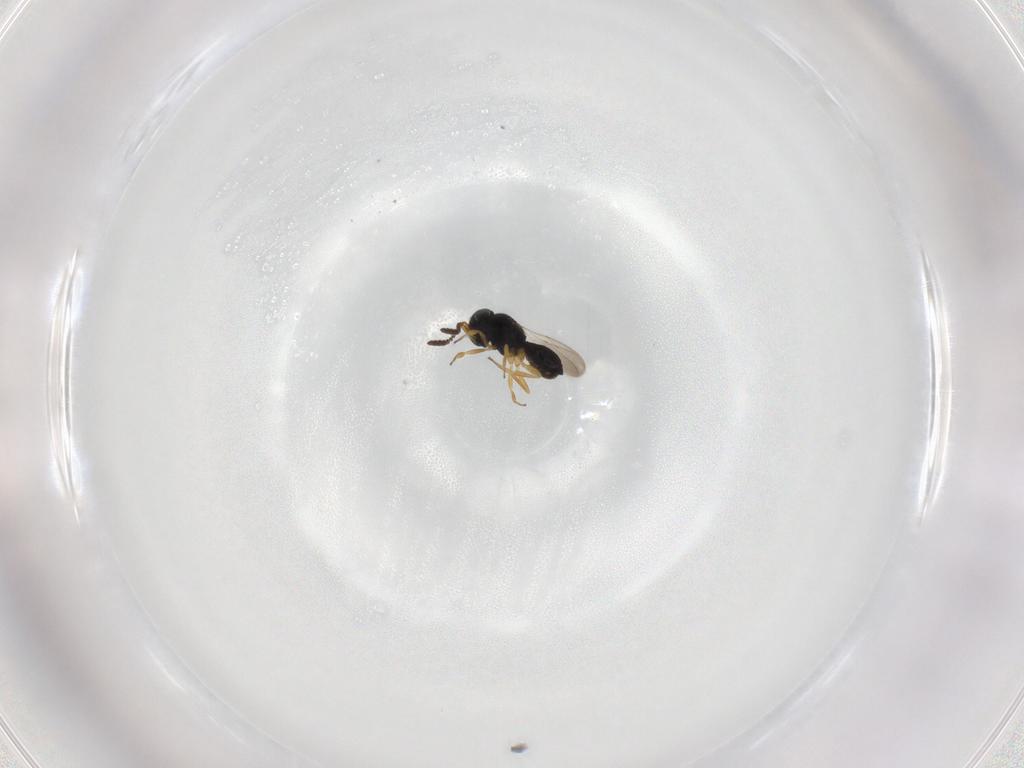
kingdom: Animalia
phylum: Arthropoda
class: Insecta
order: Hymenoptera
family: Scelionidae
